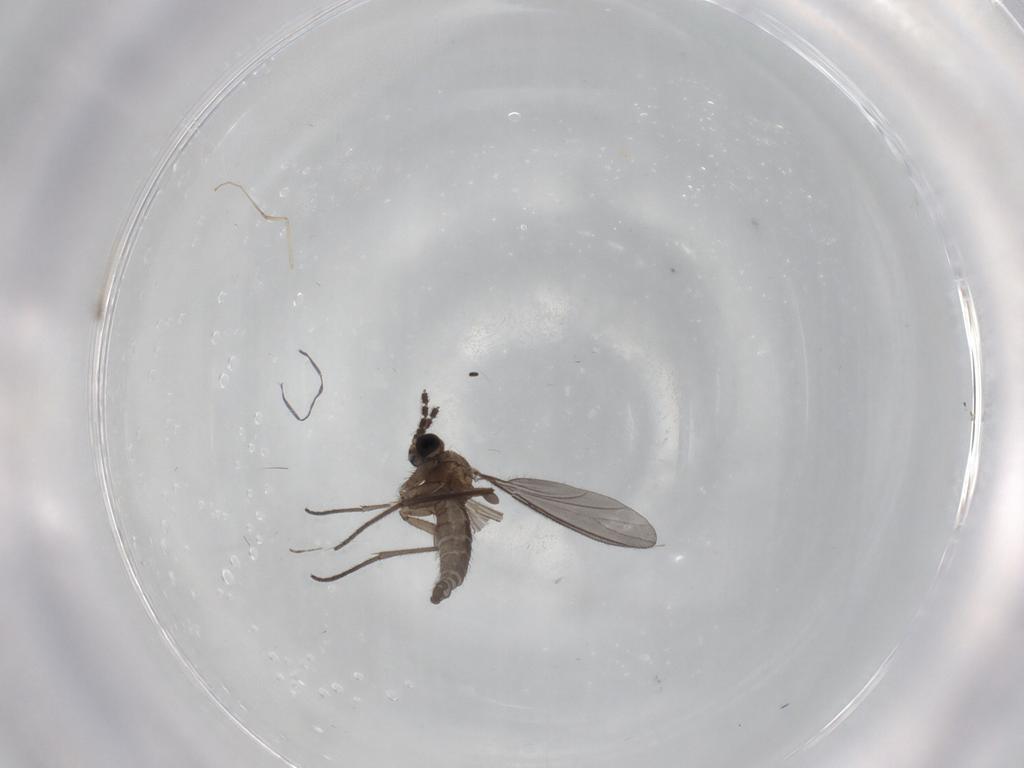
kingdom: Animalia
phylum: Arthropoda
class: Insecta
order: Diptera
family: Sciaridae
